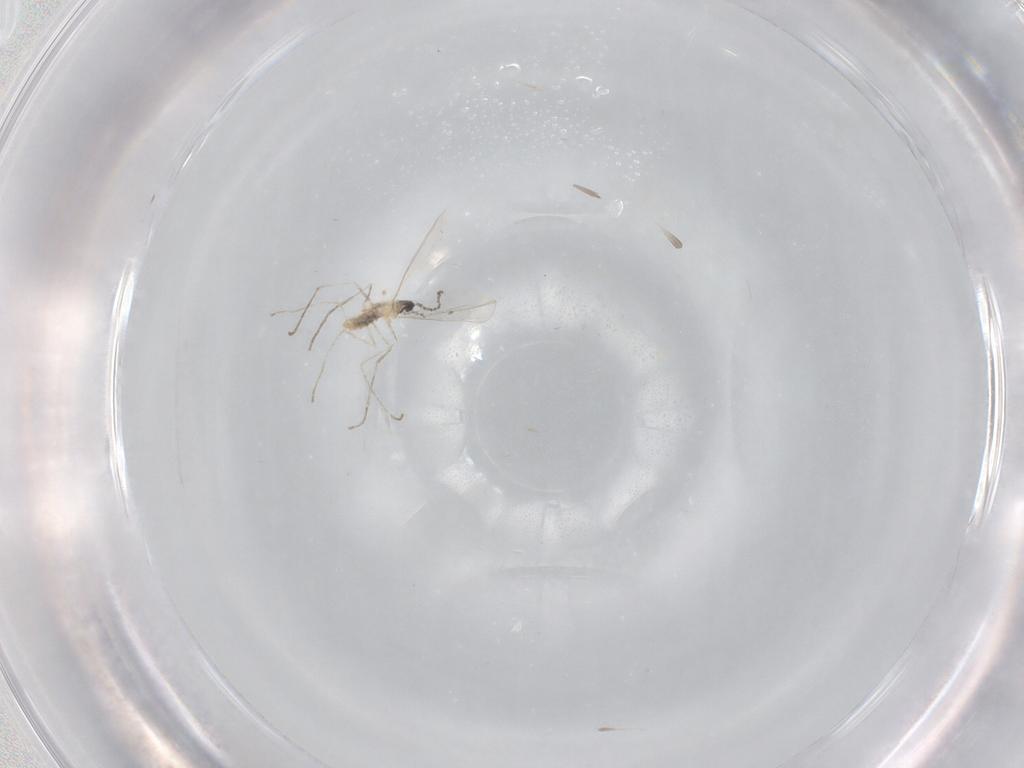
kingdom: Animalia
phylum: Arthropoda
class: Insecta
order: Diptera
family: Cecidomyiidae
